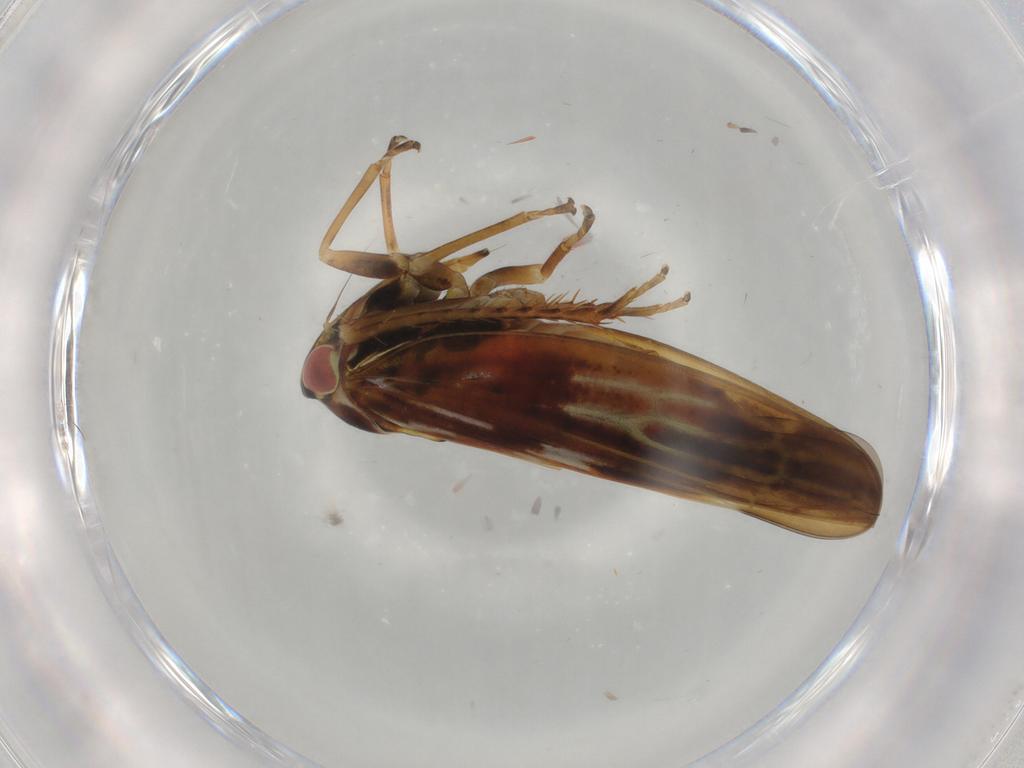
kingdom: Animalia
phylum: Arthropoda
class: Insecta
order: Hemiptera
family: Cicadellidae
